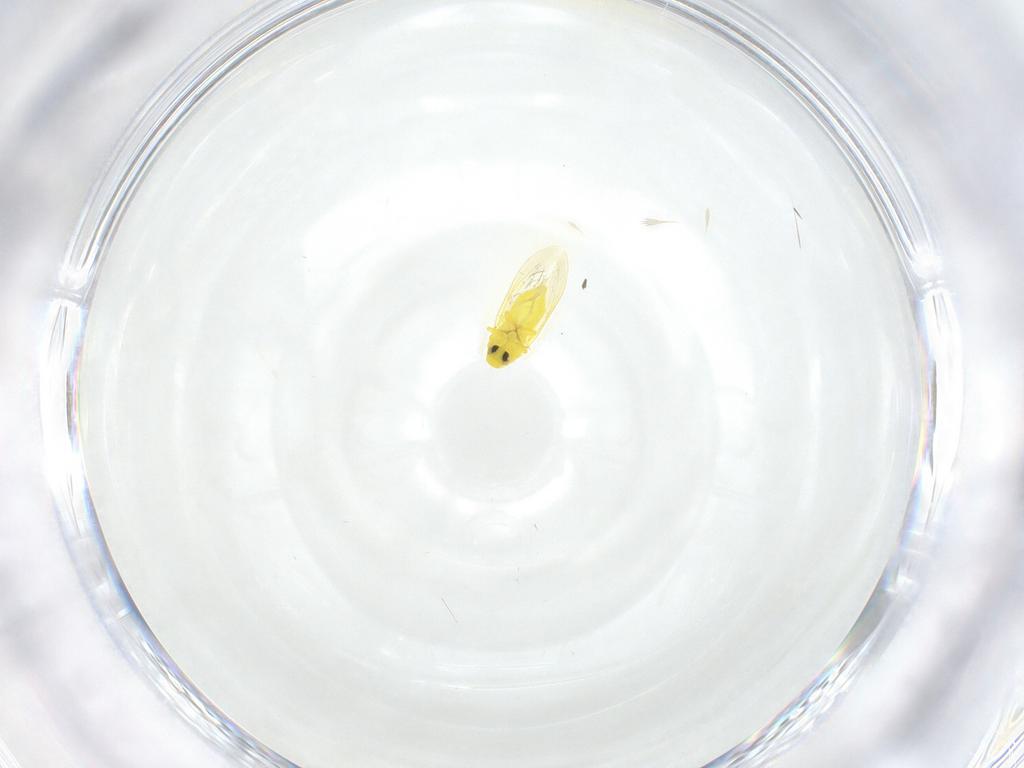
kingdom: Animalia
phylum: Arthropoda
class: Insecta
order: Hemiptera
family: Aleyrodidae
